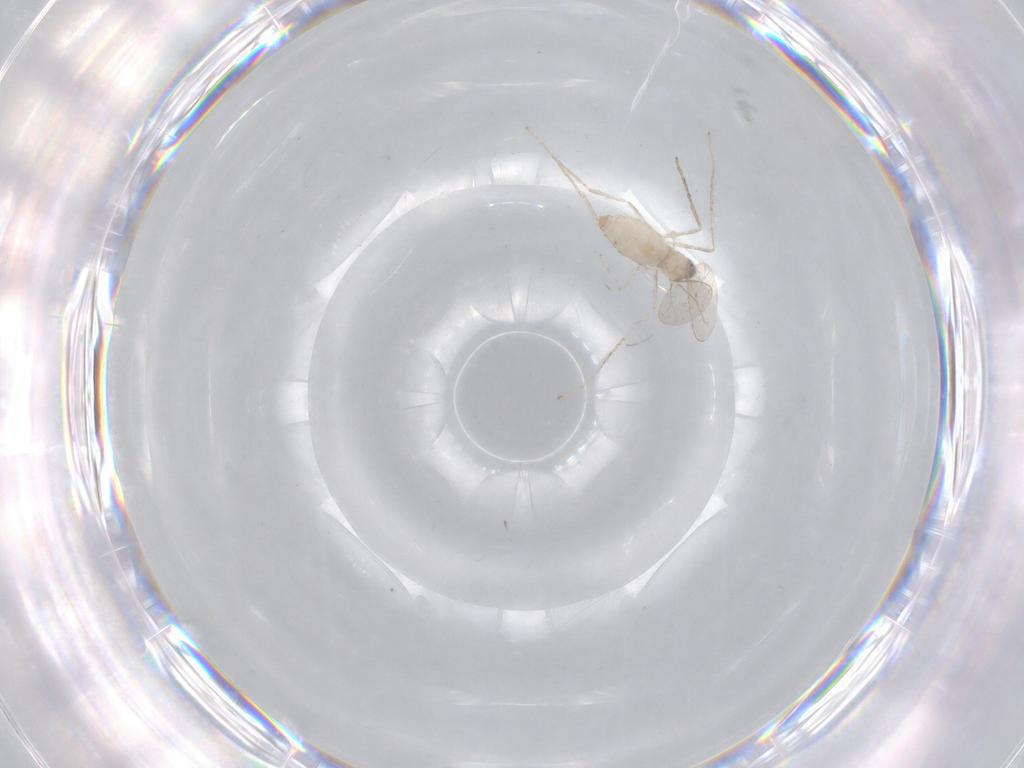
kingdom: Animalia
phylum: Arthropoda
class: Insecta
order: Diptera
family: Cecidomyiidae
